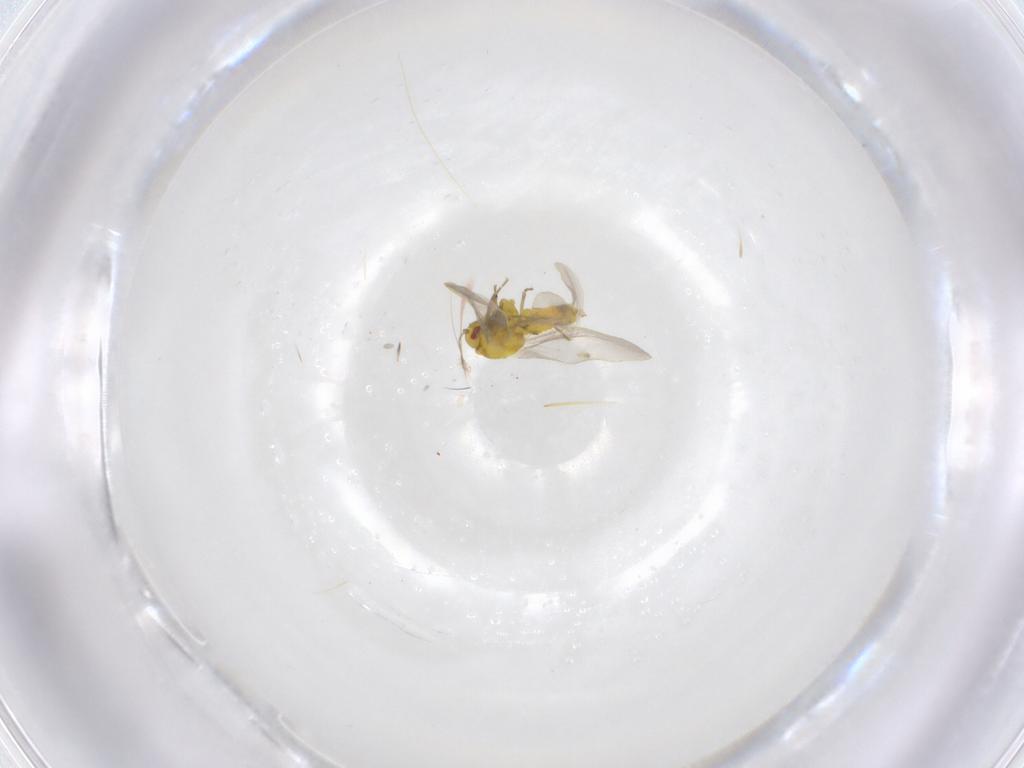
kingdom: Animalia
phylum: Arthropoda
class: Insecta
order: Hemiptera
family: Aleyrodidae
